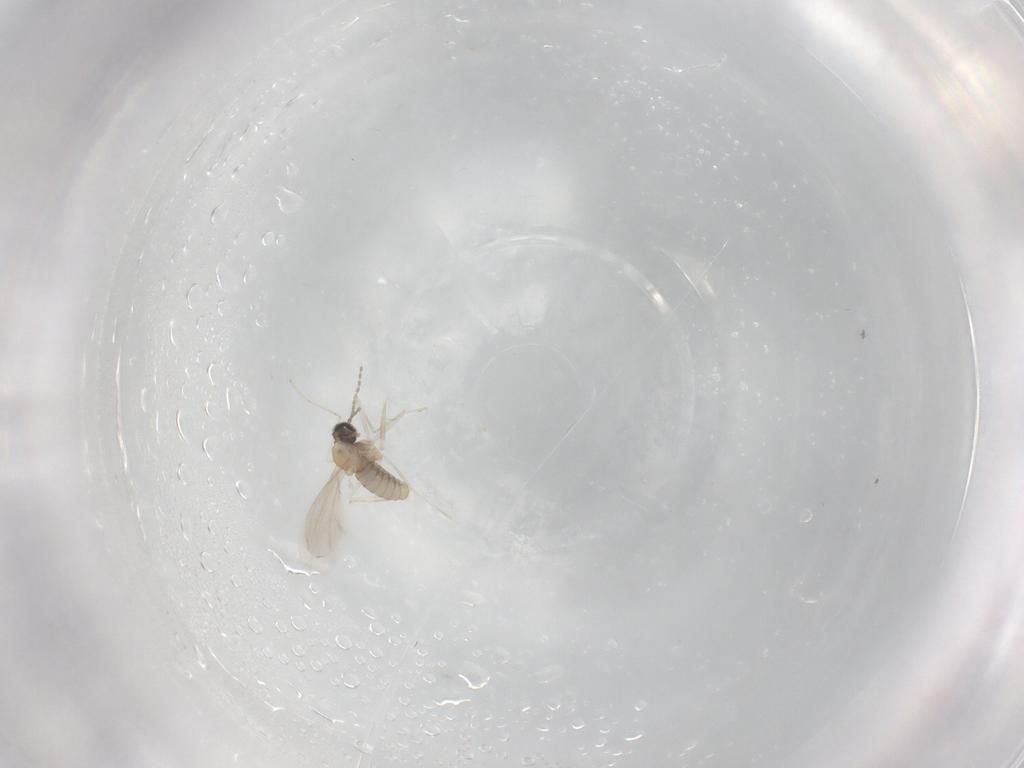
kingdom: Animalia
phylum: Arthropoda
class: Insecta
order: Diptera
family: Cecidomyiidae
